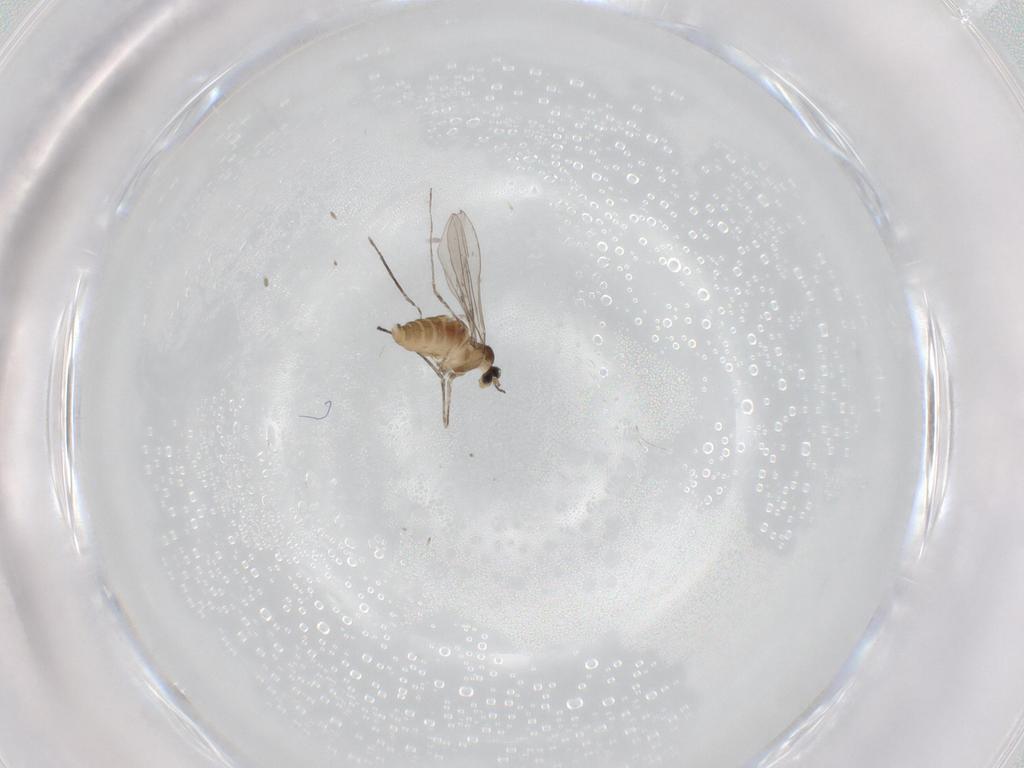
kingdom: Animalia
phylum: Arthropoda
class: Insecta
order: Diptera
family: Cecidomyiidae
